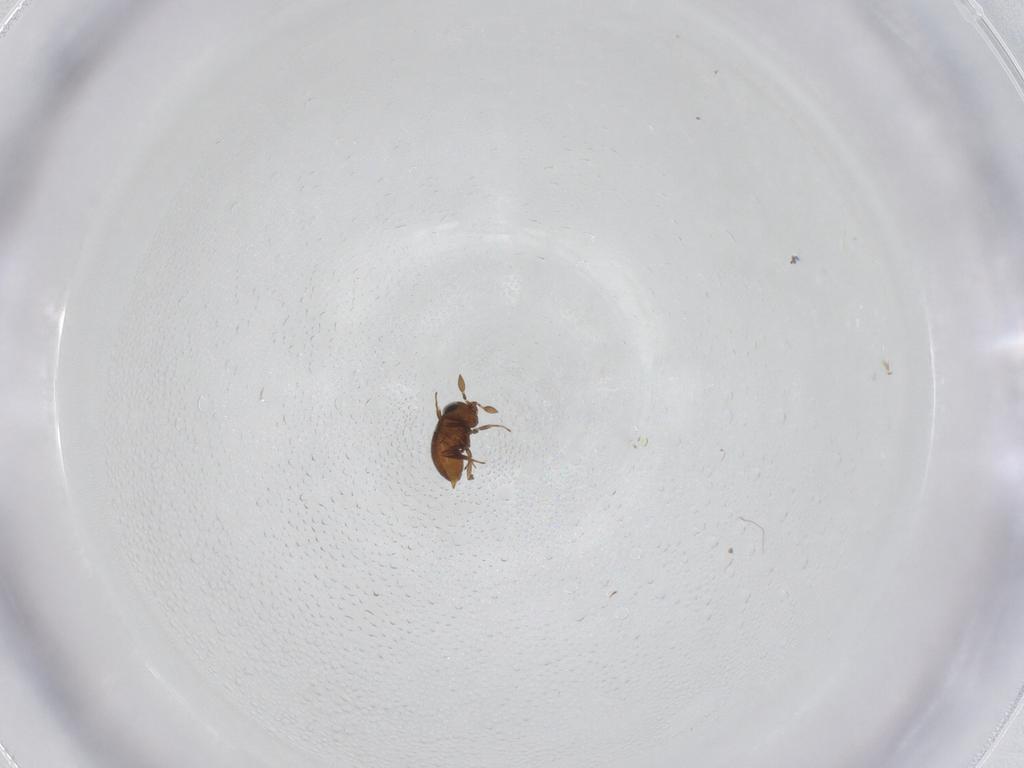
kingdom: Animalia
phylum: Arthropoda
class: Insecta
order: Hymenoptera
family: Scelionidae
